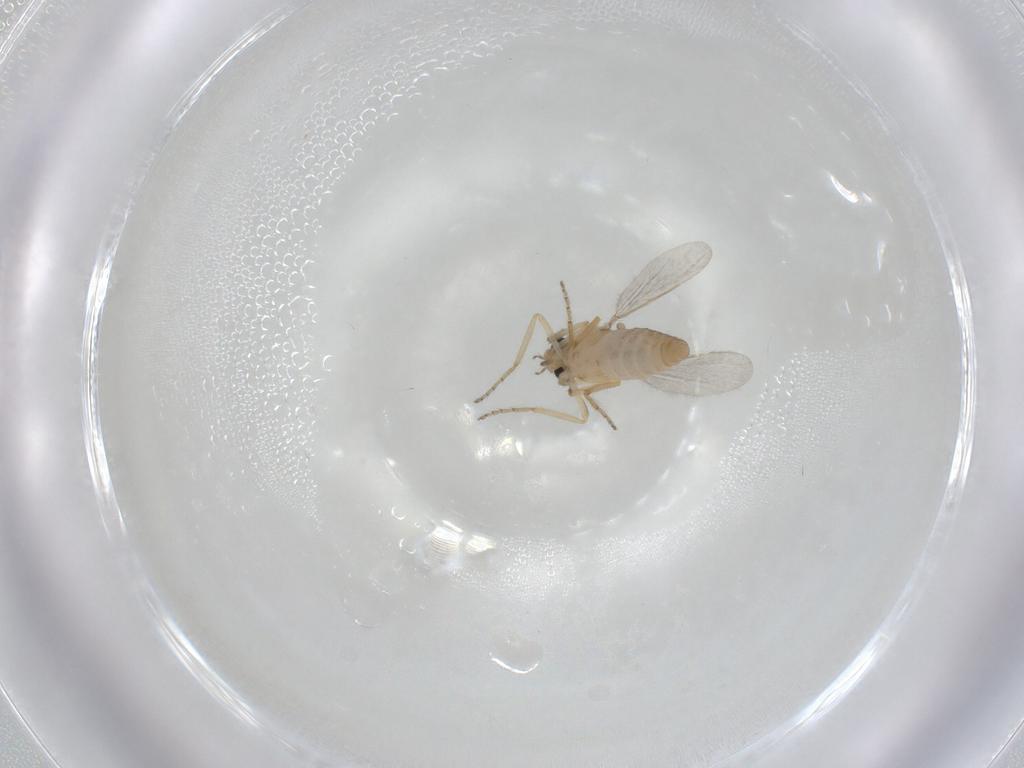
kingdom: Animalia
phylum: Arthropoda
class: Insecta
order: Diptera
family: Ceratopogonidae
